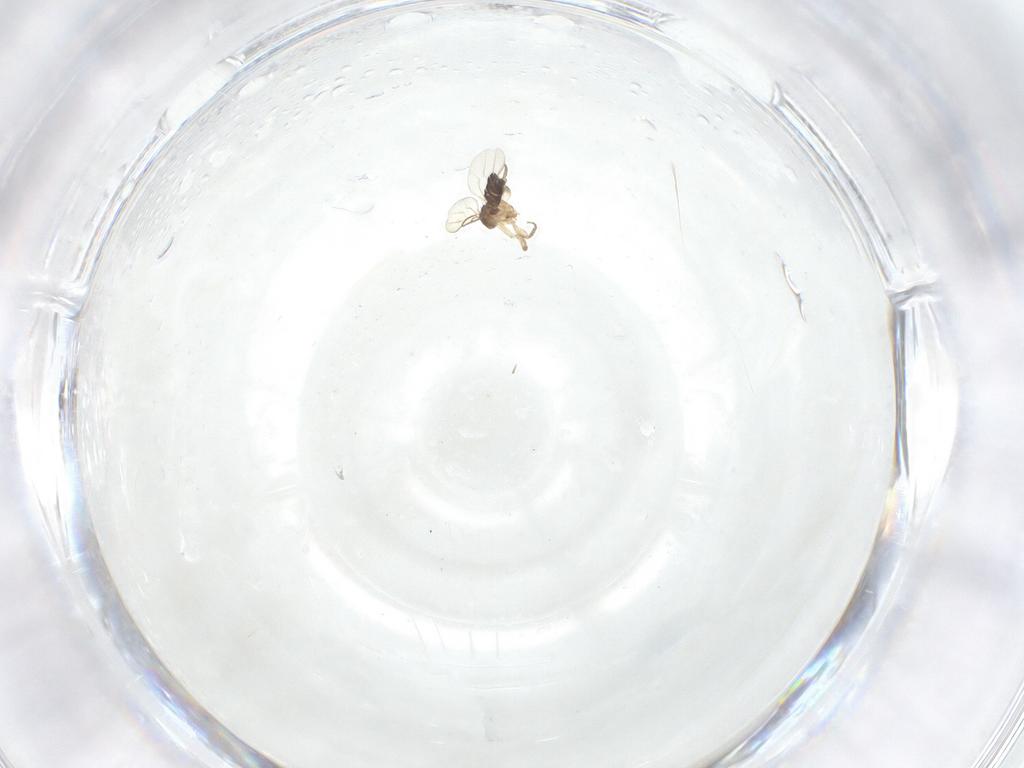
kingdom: Animalia
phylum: Arthropoda
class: Insecta
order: Diptera
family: Phoridae
